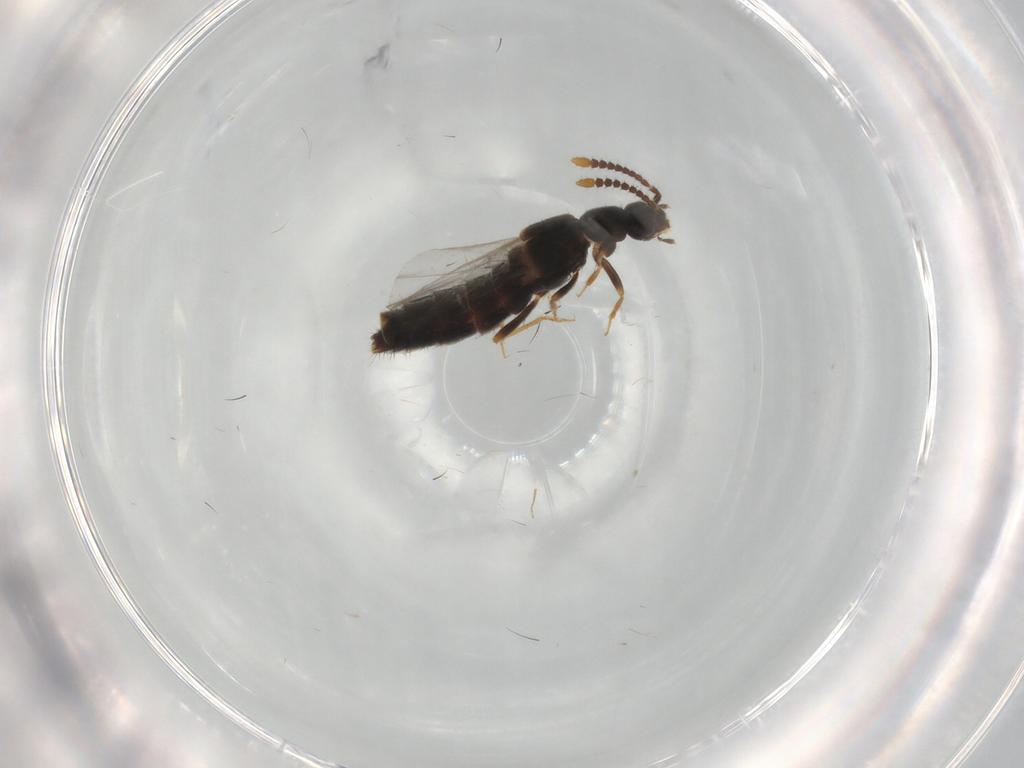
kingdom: Animalia
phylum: Arthropoda
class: Insecta
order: Coleoptera
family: Staphylinidae
